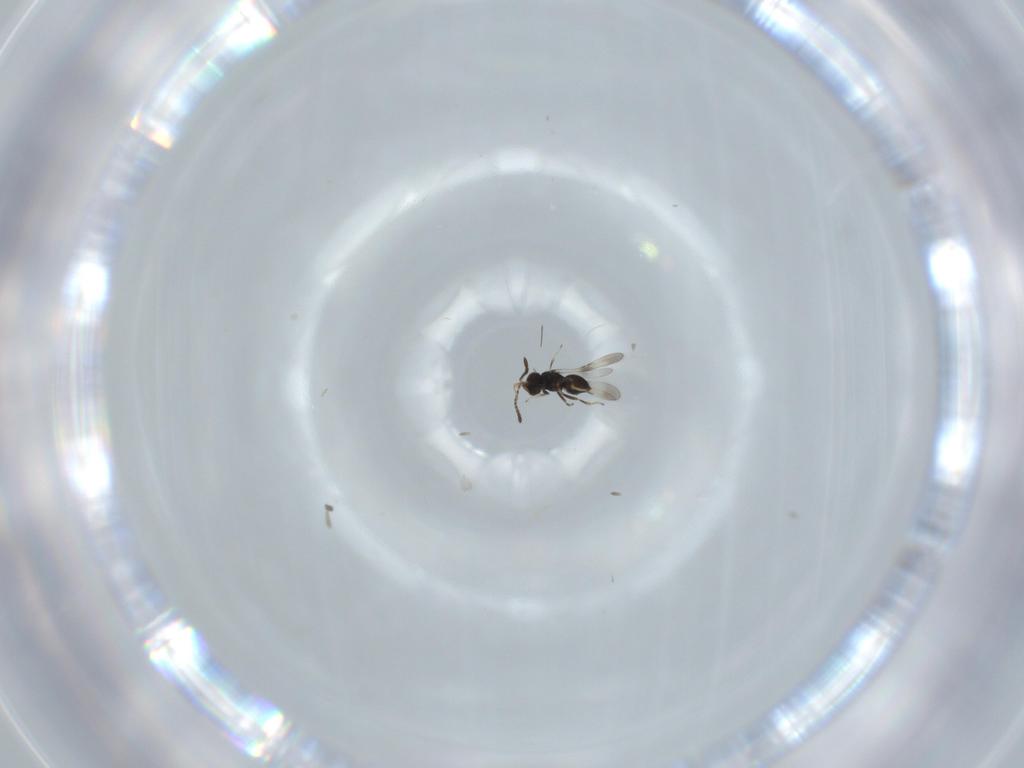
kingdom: Animalia
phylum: Arthropoda
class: Insecta
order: Hymenoptera
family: Ceraphronidae
